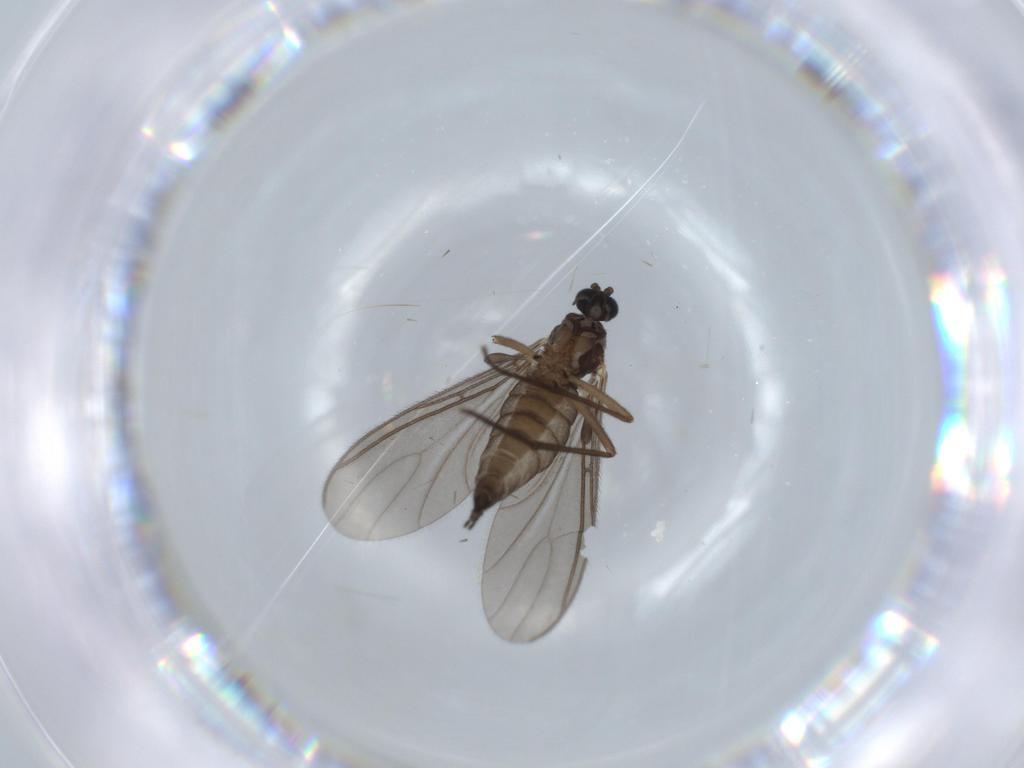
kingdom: Animalia
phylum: Arthropoda
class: Insecta
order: Diptera
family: Sciaridae
